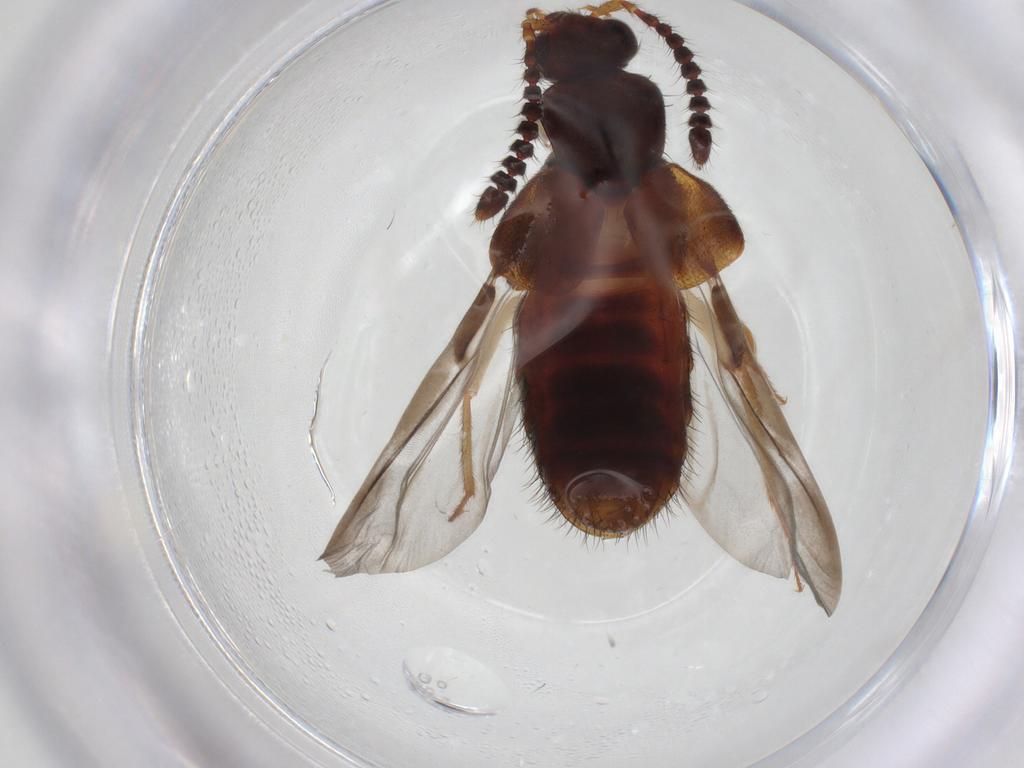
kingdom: Animalia
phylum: Arthropoda
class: Insecta
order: Coleoptera
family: Staphylinidae
